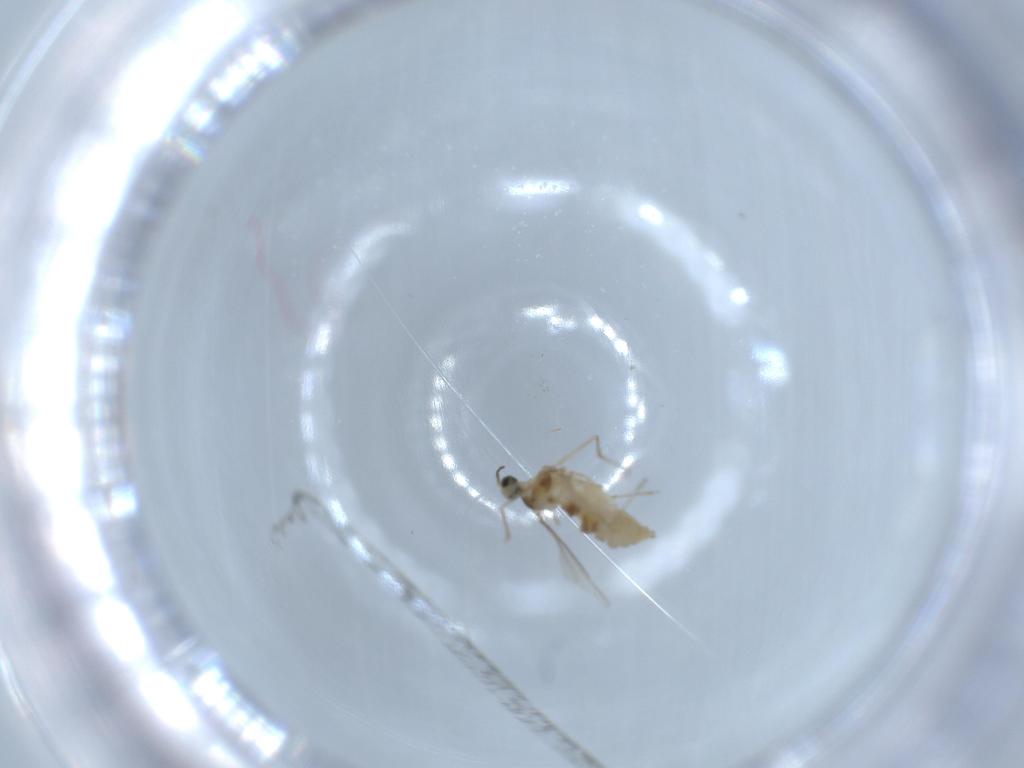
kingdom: Animalia
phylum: Arthropoda
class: Insecta
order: Diptera
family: Cecidomyiidae
